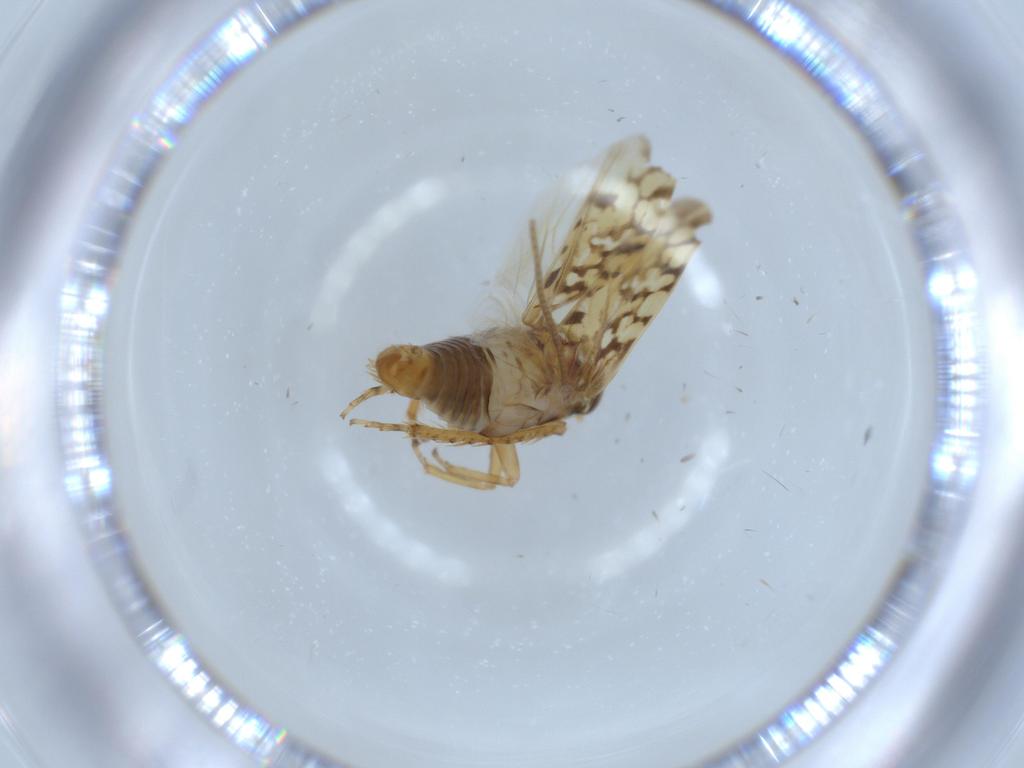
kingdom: Animalia
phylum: Arthropoda
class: Insecta
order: Hemiptera
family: Cicadellidae
